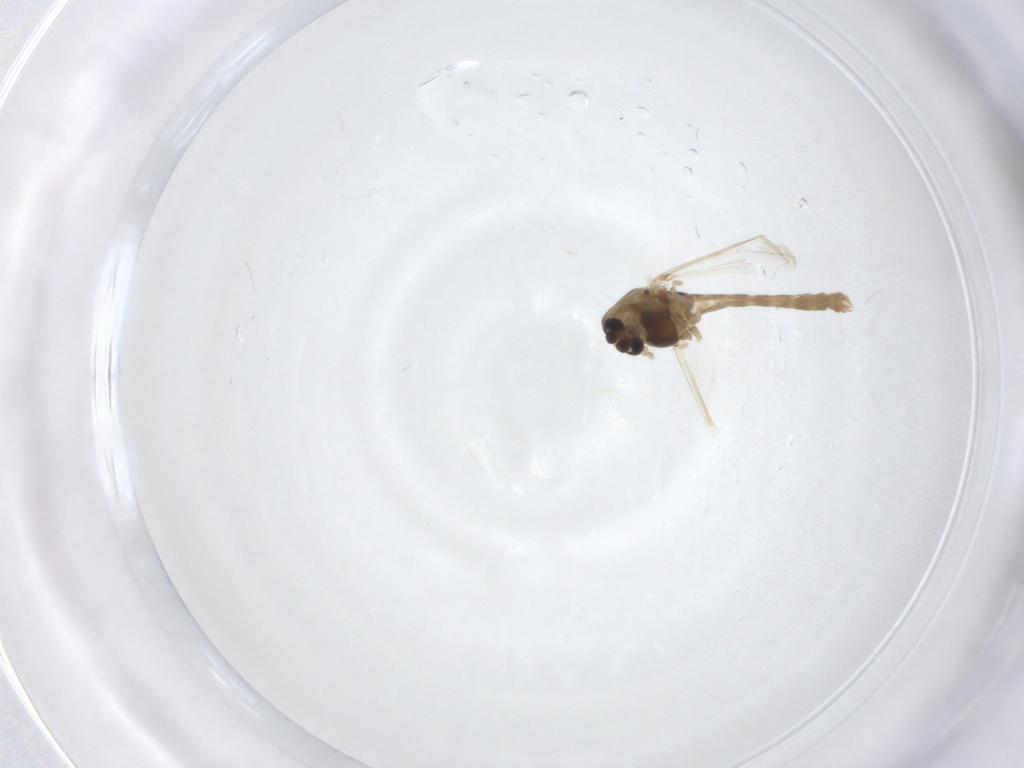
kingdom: Animalia
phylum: Arthropoda
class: Insecta
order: Diptera
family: Chironomidae
